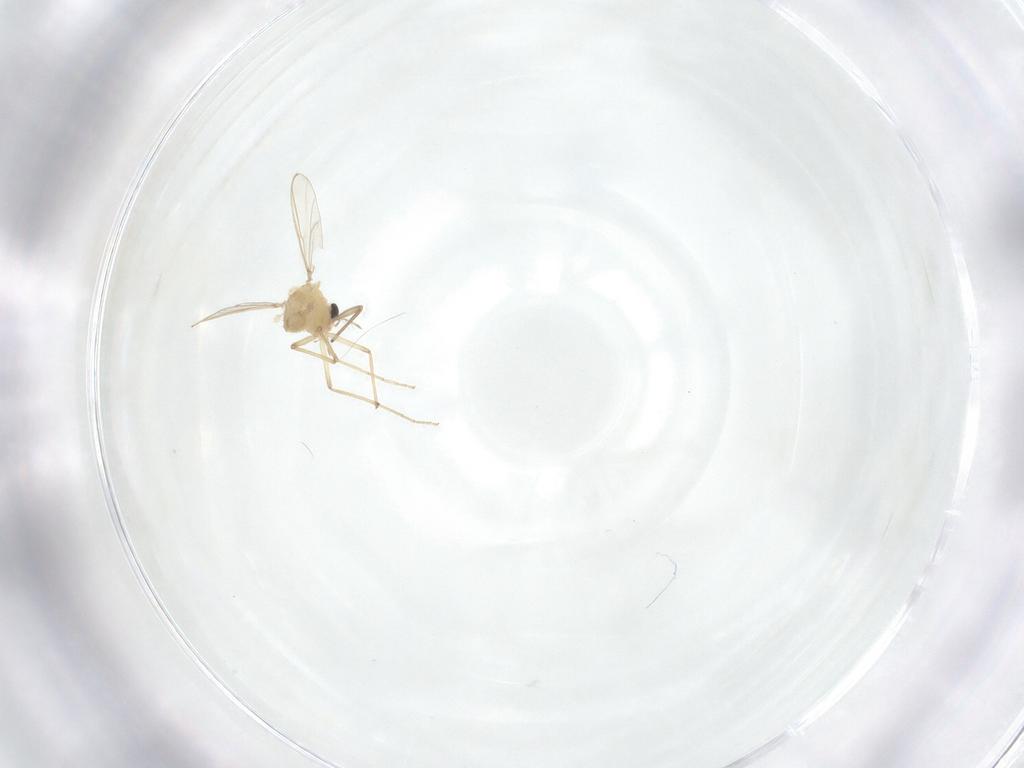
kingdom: Animalia
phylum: Arthropoda
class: Insecta
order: Diptera
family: Chironomidae
